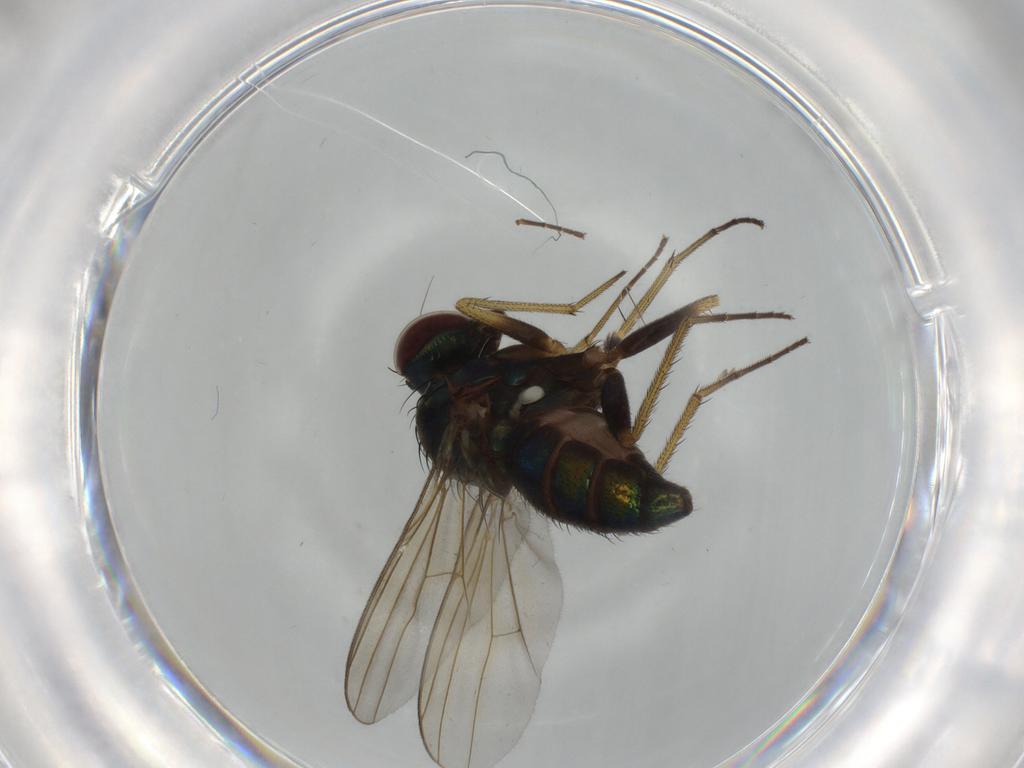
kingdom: Animalia
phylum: Arthropoda
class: Insecta
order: Diptera
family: Dolichopodidae
